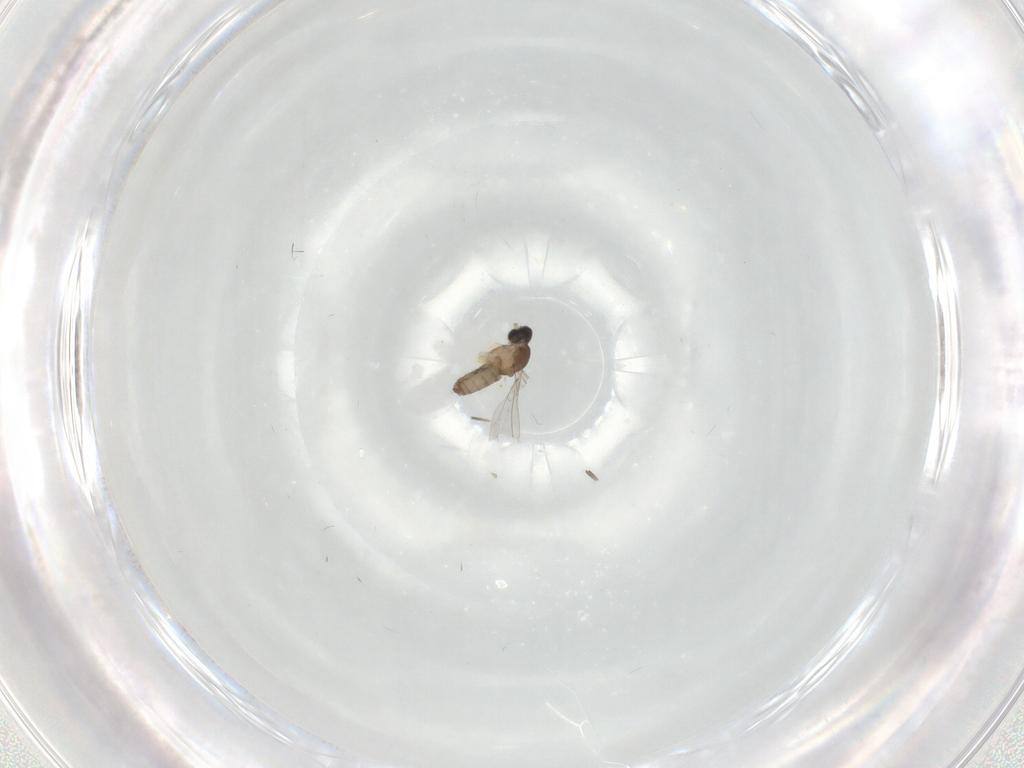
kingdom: Animalia
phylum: Arthropoda
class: Insecta
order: Diptera
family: Cecidomyiidae
